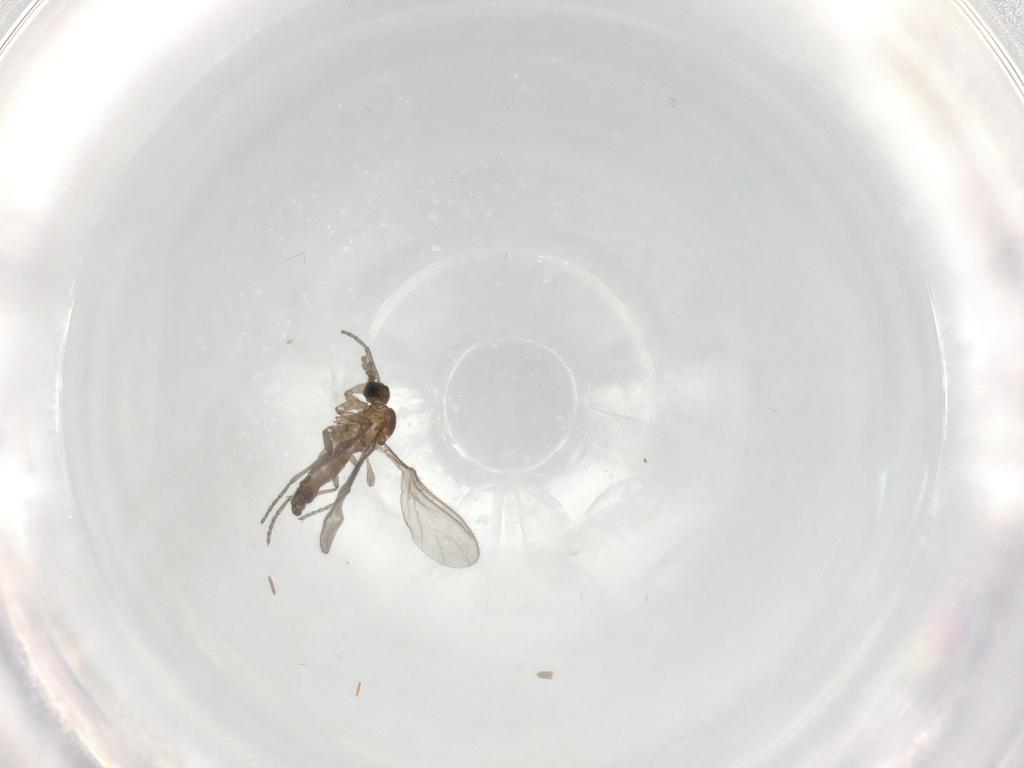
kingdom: Animalia
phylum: Arthropoda
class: Insecta
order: Diptera
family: Sciaridae
